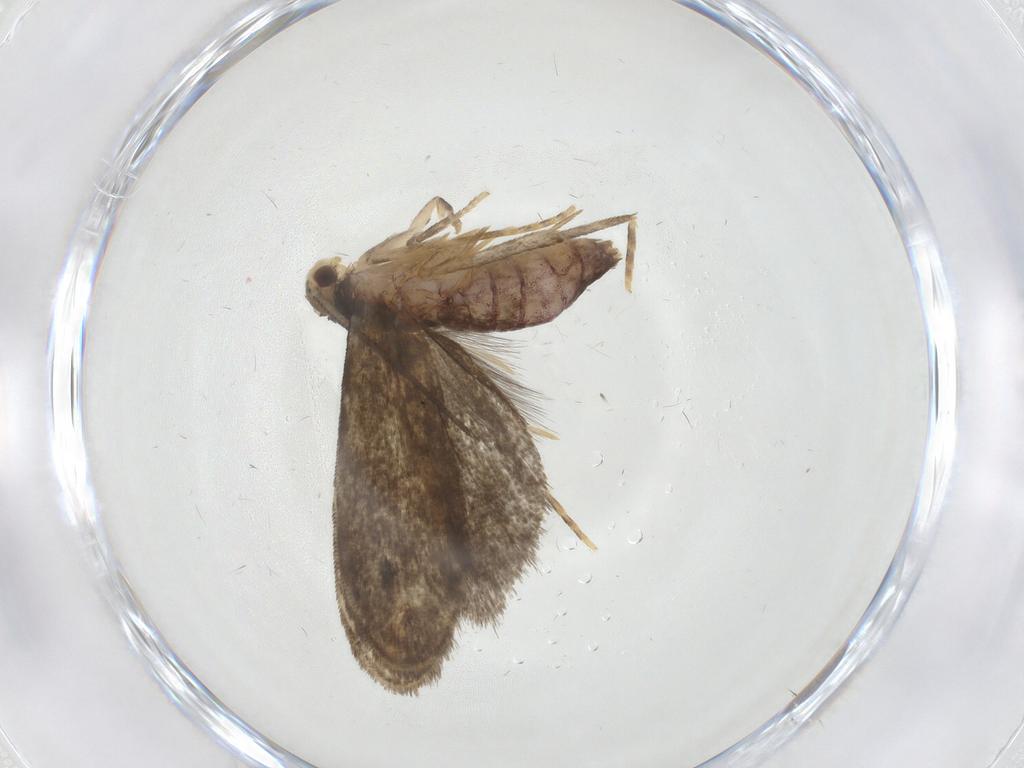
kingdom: Animalia
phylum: Arthropoda
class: Insecta
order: Lepidoptera
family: Dryadaulidae
